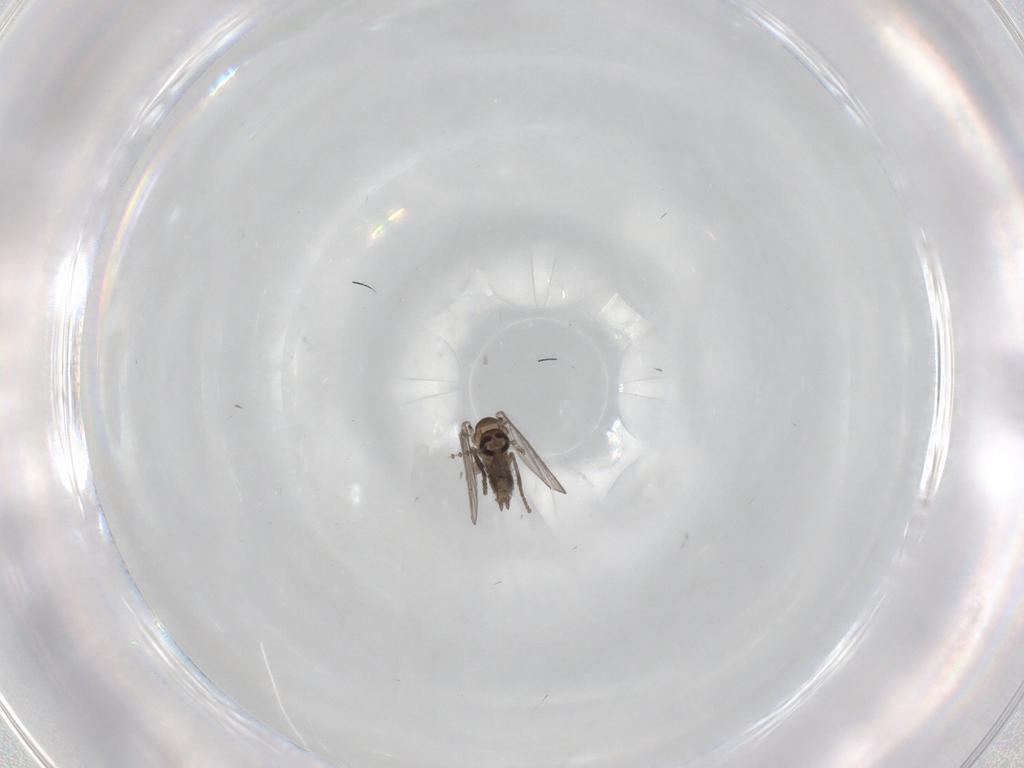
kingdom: Animalia
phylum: Arthropoda
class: Insecta
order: Diptera
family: Psychodidae
